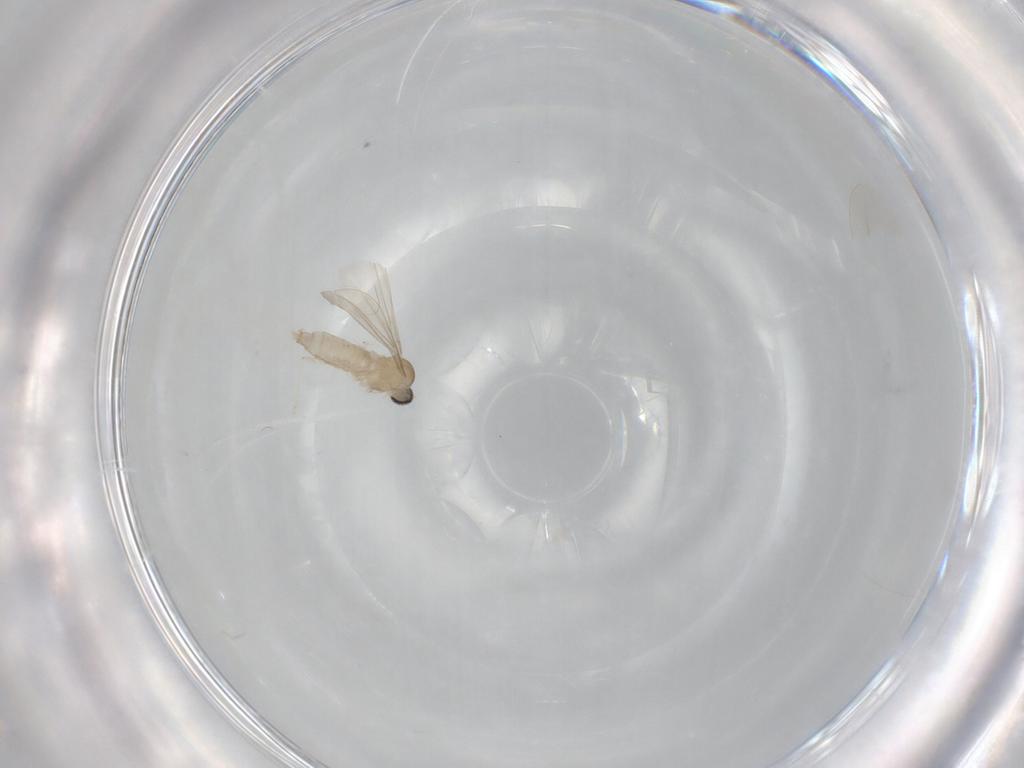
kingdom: Animalia
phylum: Arthropoda
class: Insecta
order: Diptera
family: Cecidomyiidae
